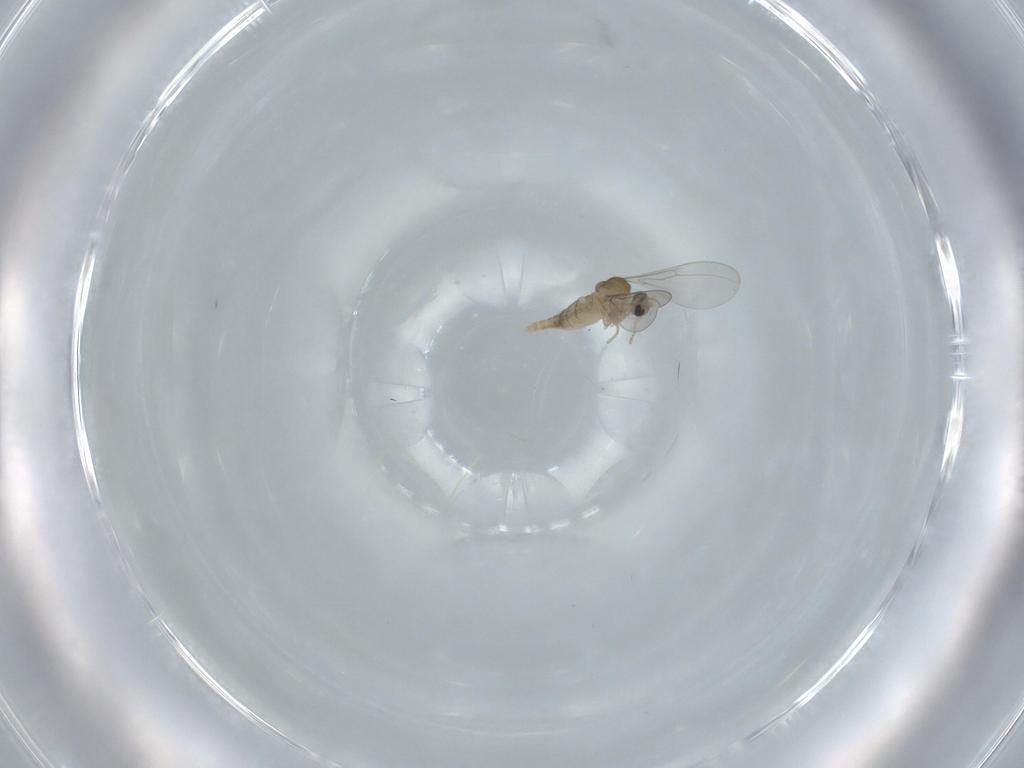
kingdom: Animalia
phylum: Arthropoda
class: Insecta
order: Diptera
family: Cecidomyiidae
